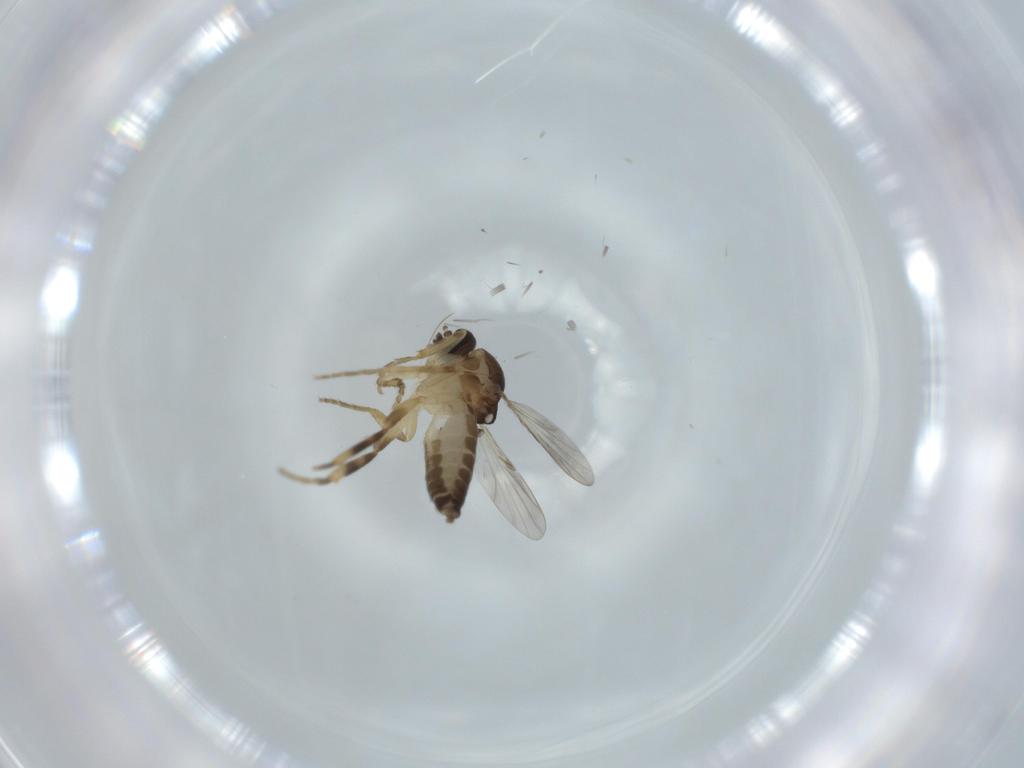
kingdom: Animalia
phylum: Arthropoda
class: Insecta
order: Diptera
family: Ceratopogonidae
